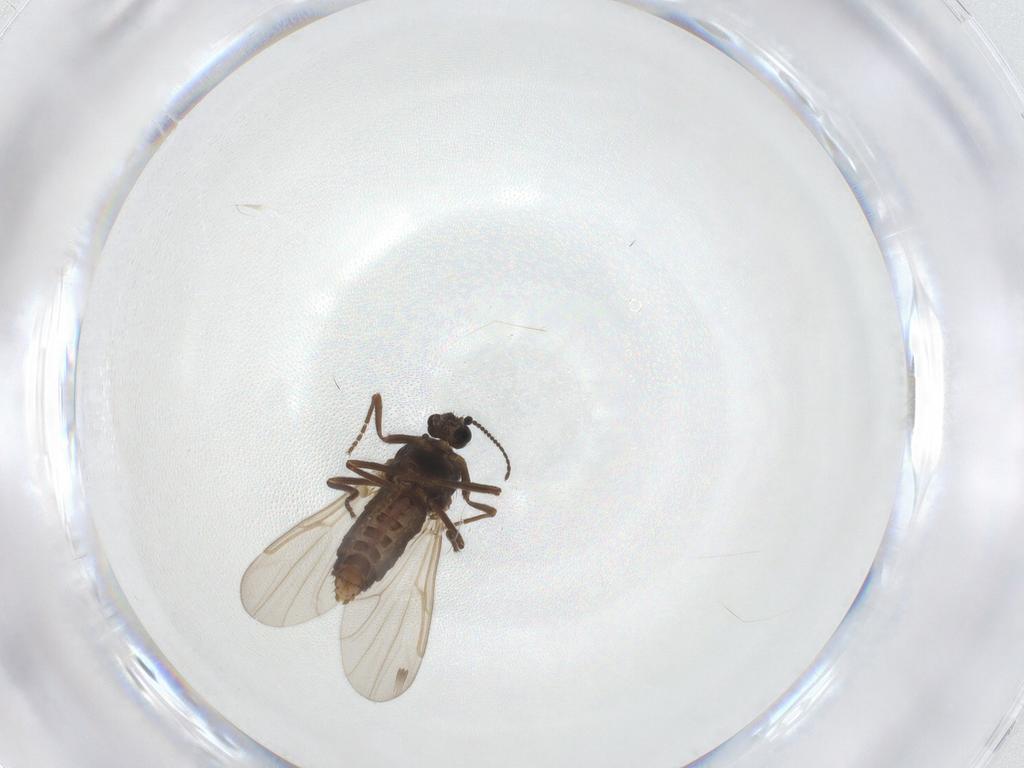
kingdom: Animalia
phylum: Arthropoda
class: Insecta
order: Diptera
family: Ceratopogonidae
